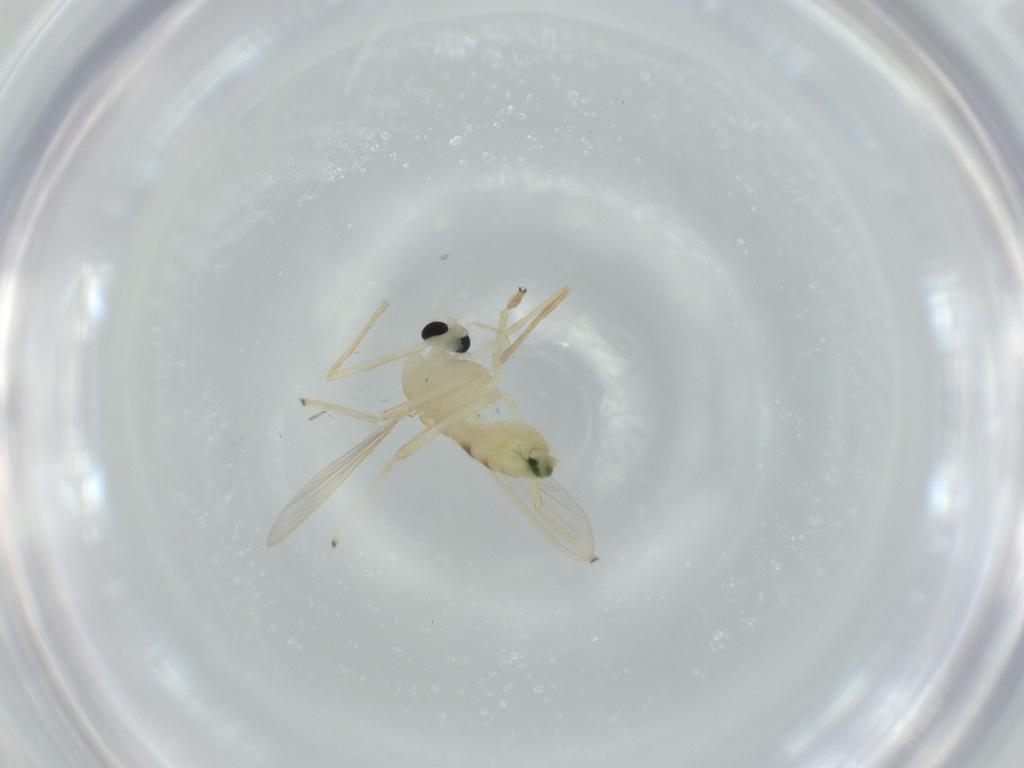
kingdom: Animalia
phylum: Arthropoda
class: Insecta
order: Diptera
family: Chironomidae
